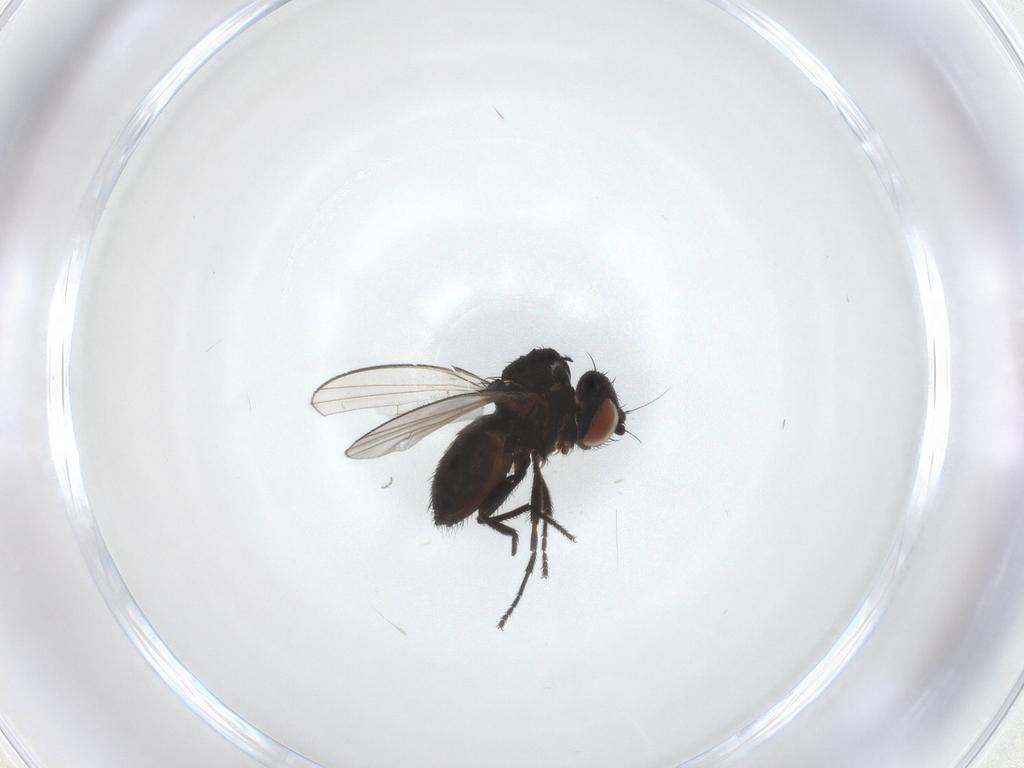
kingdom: Animalia
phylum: Arthropoda
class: Insecta
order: Diptera
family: Milichiidae
